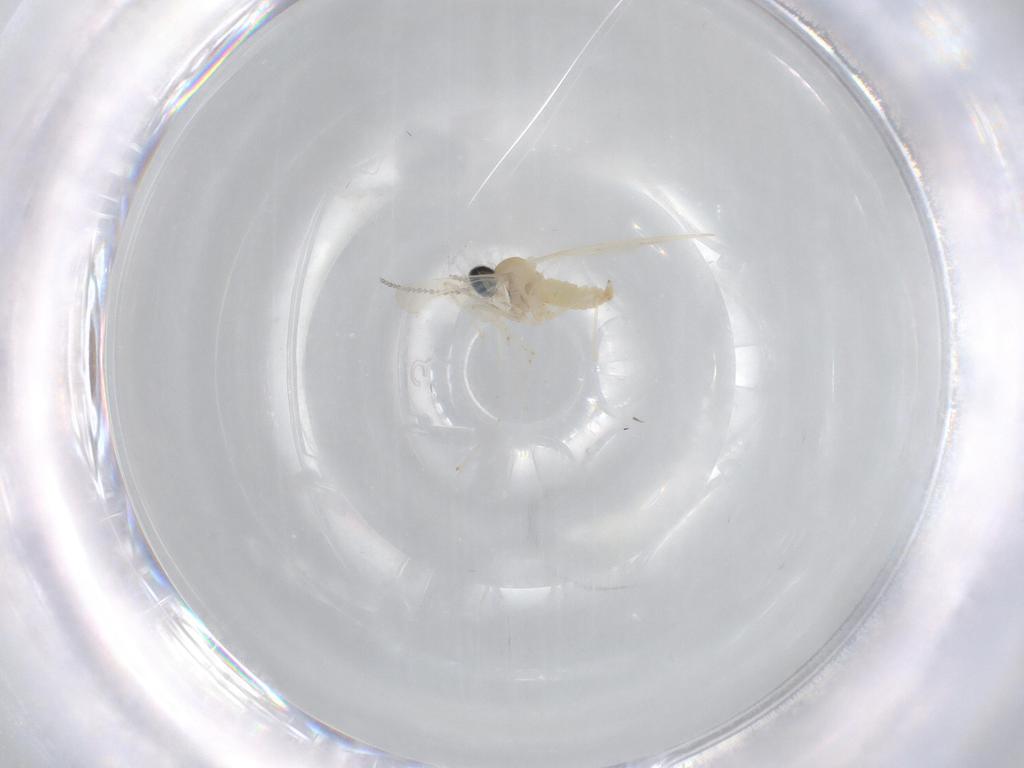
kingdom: Animalia
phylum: Arthropoda
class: Insecta
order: Diptera
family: Cecidomyiidae
